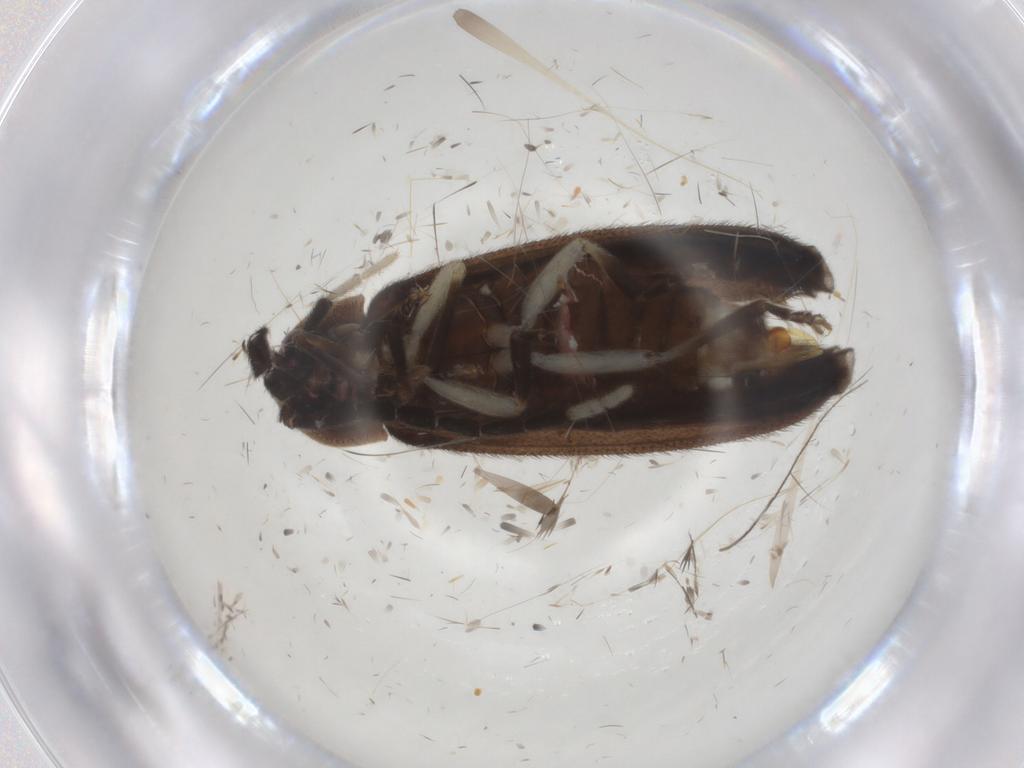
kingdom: Animalia
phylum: Arthropoda
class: Insecta
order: Coleoptera
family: Lampyridae
